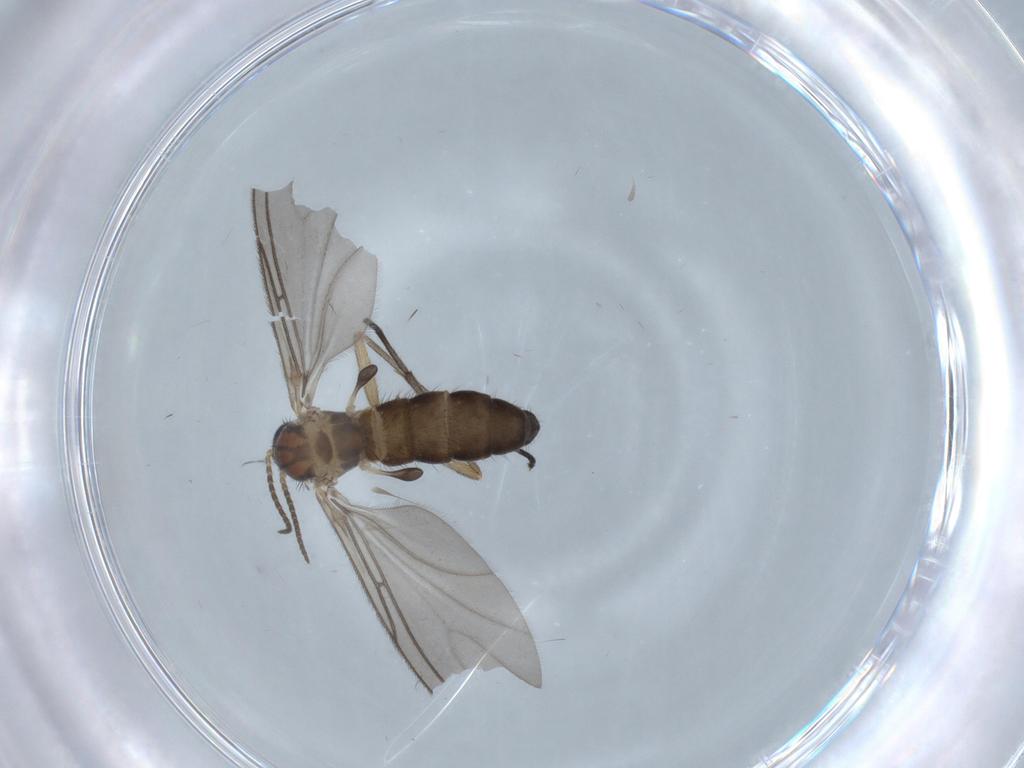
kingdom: Animalia
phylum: Arthropoda
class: Insecta
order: Diptera
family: Sciaridae
